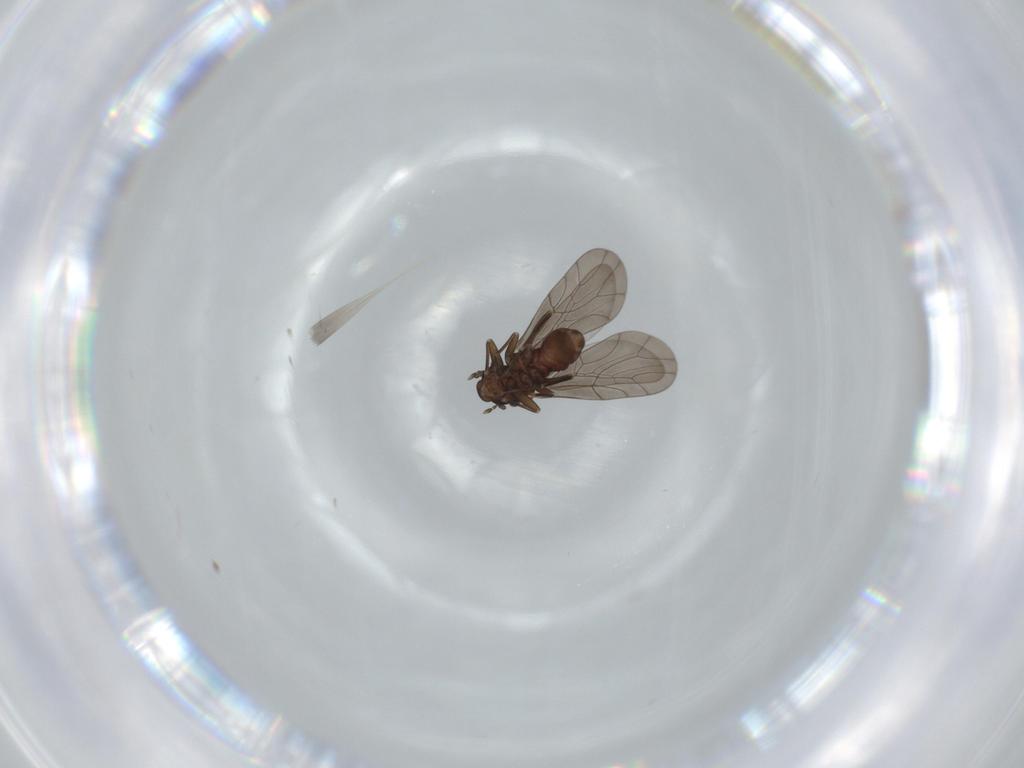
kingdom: Animalia
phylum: Arthropoda
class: Insecta
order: Psocodea
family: Lepidopsocidae
